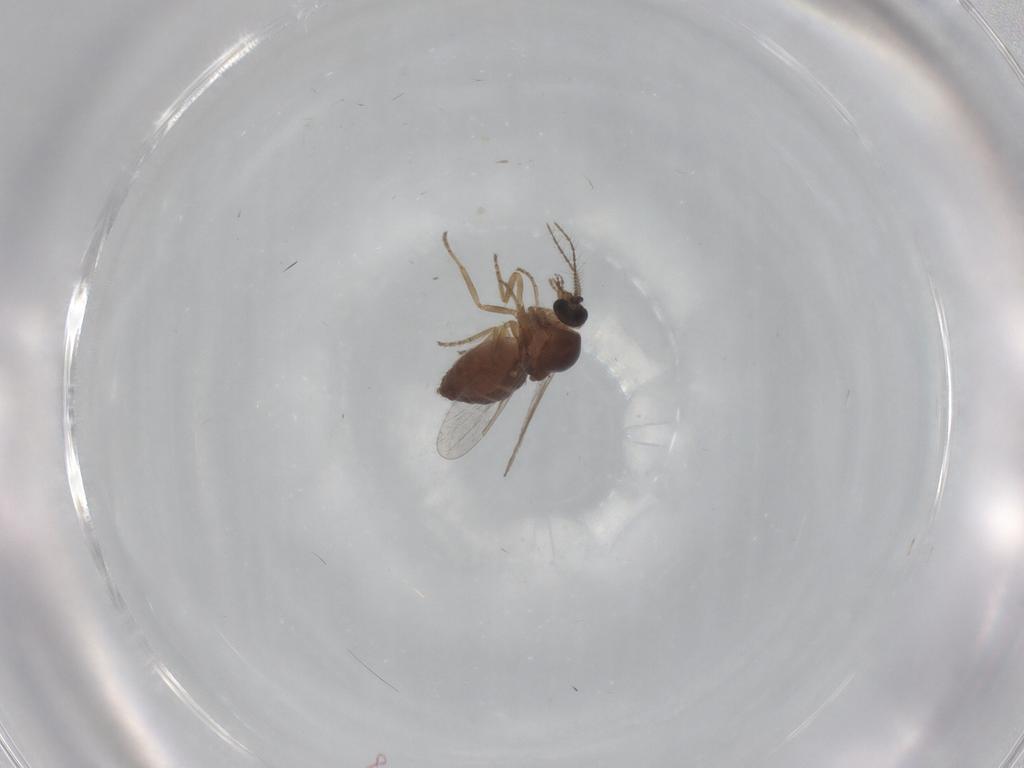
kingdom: Animalia
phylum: Arthropoda
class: Insecta
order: Diptera
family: Ceratopogonidae
